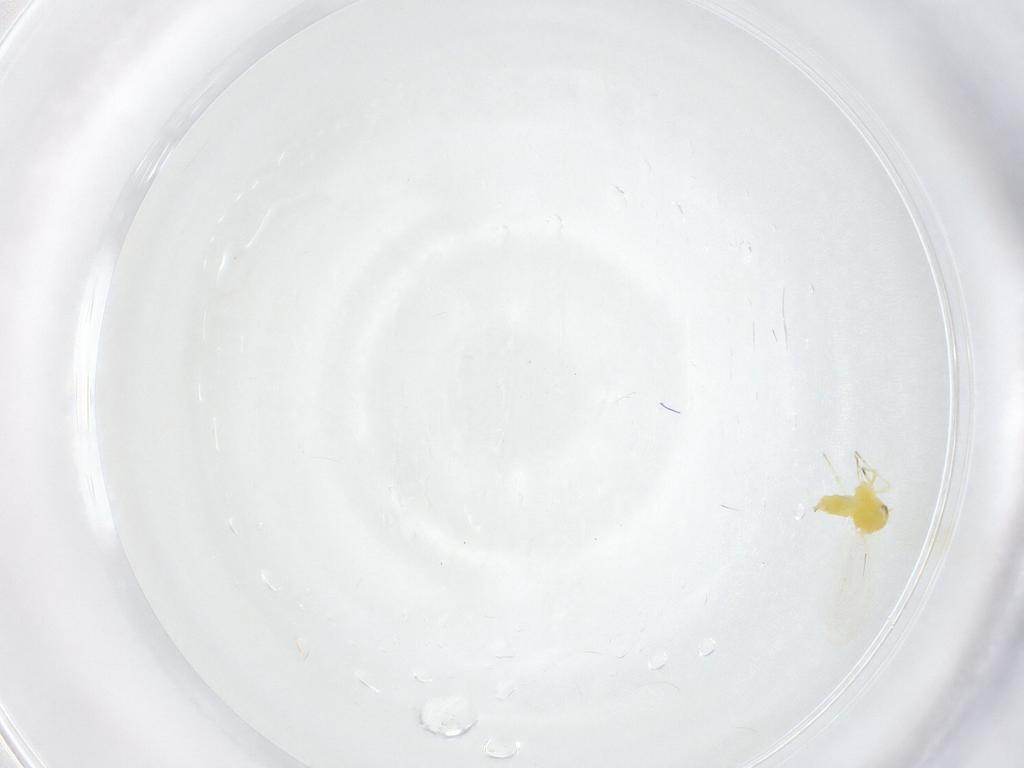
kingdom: Animalia
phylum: Arthropoda
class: Insecta
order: Hemiptera
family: Aleyrodidae
